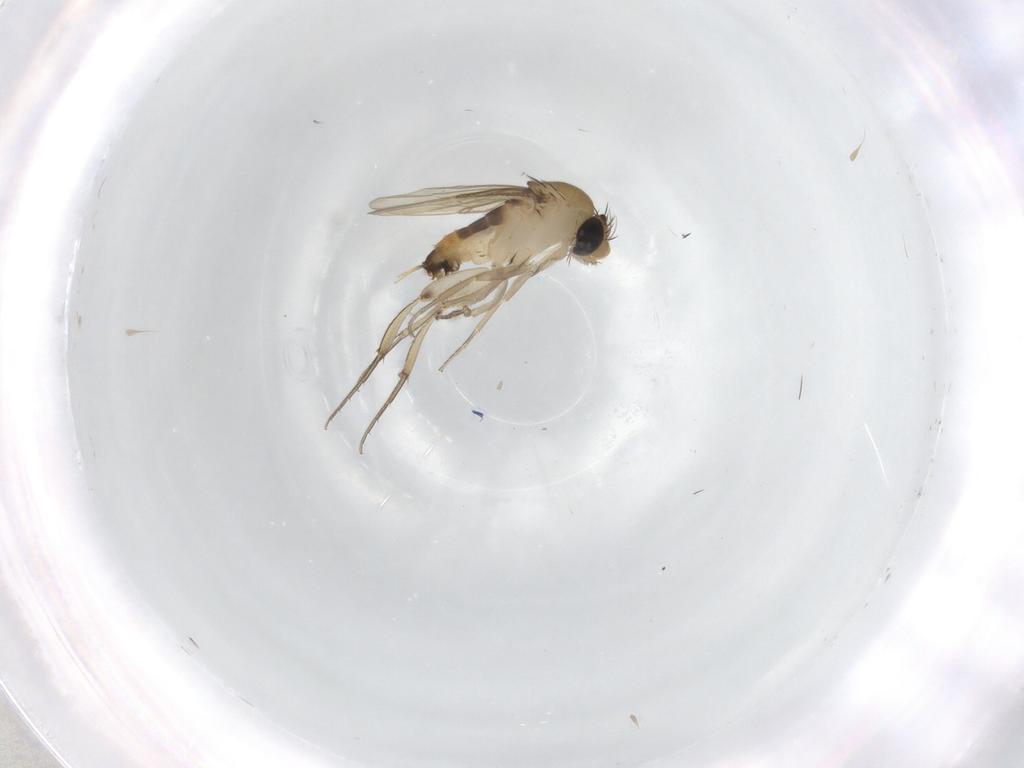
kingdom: Animalia
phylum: Arthropoda
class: Insecta
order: Diptera
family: Phoridae
